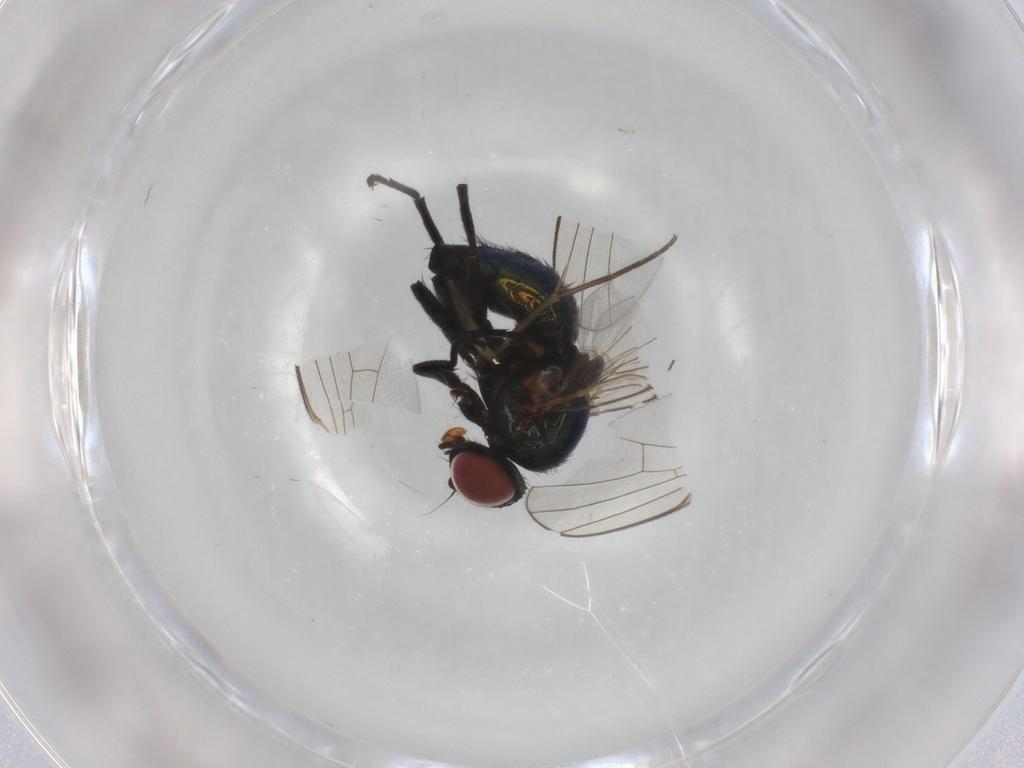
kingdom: Animalia
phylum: Arthropoda
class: Insecta
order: Diptera
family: Agromyzidae
